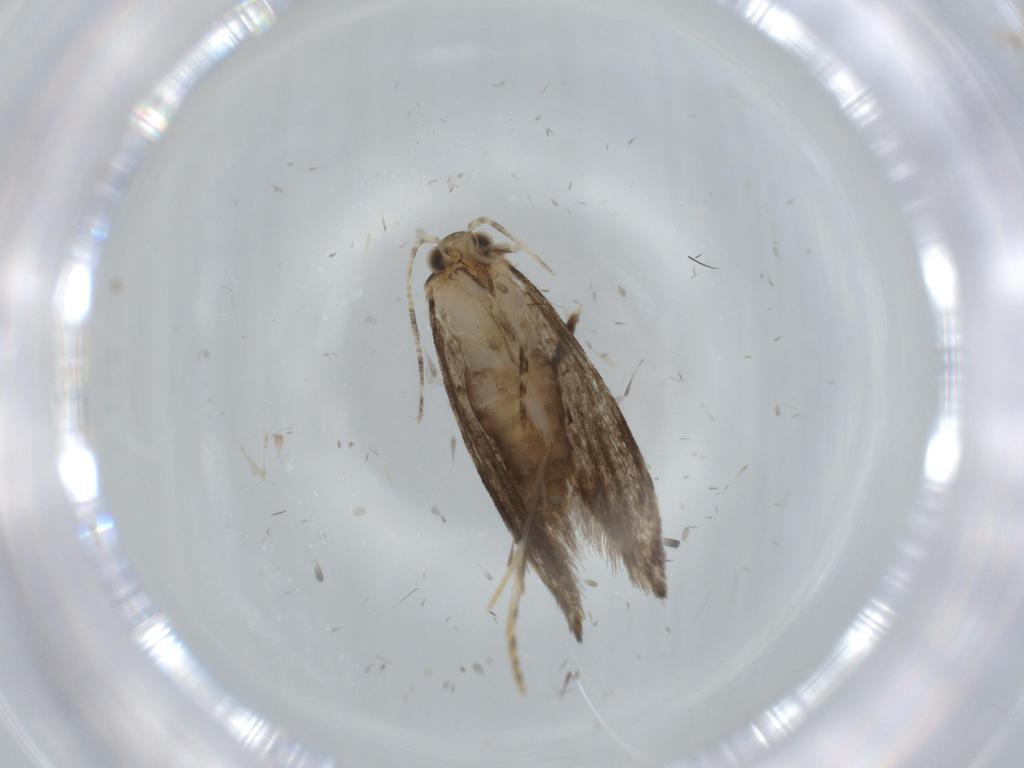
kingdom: Animalia
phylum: Arthropoda
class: Insecta
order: Lepidoptera
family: Tineidae
